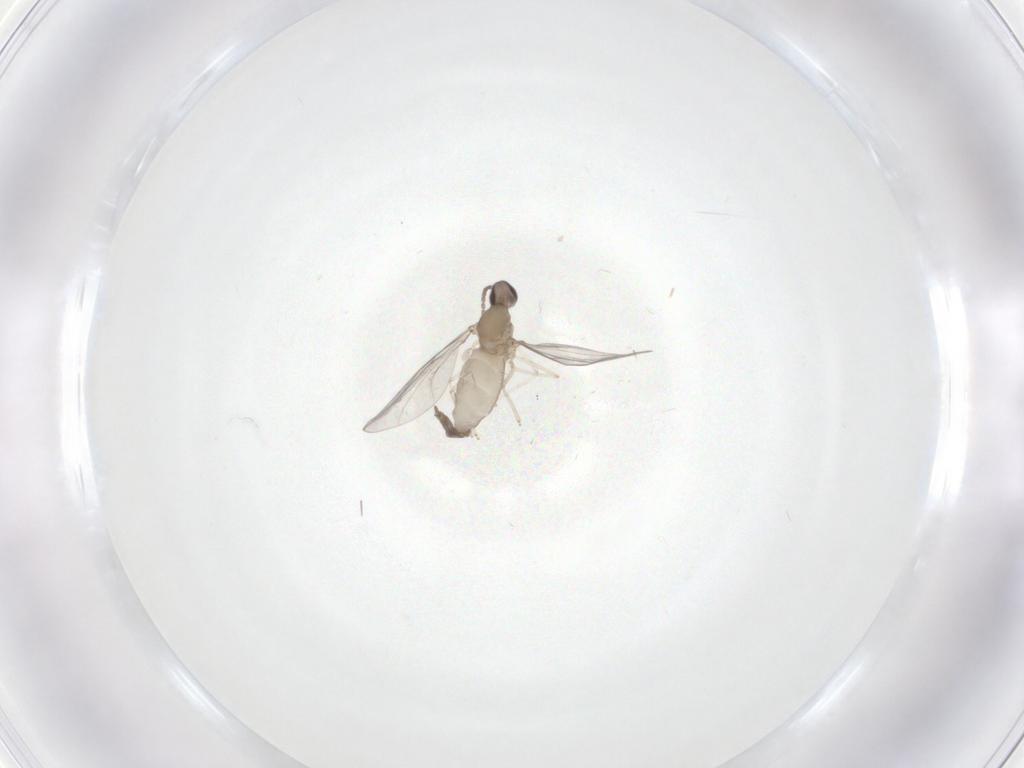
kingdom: Animalia
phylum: Arthropoda
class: Insecta
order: Diptera
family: Cecidomyiidae
